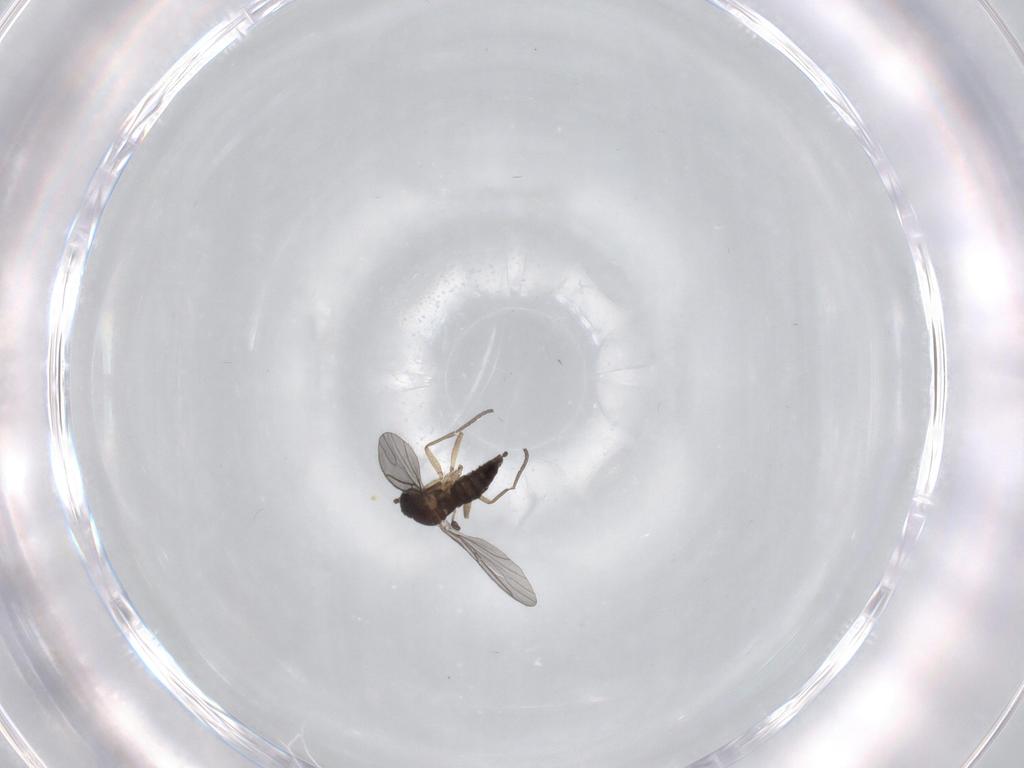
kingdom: Animalia
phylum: Arthropoda
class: Insecta
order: Diptera
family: Sciaridae
